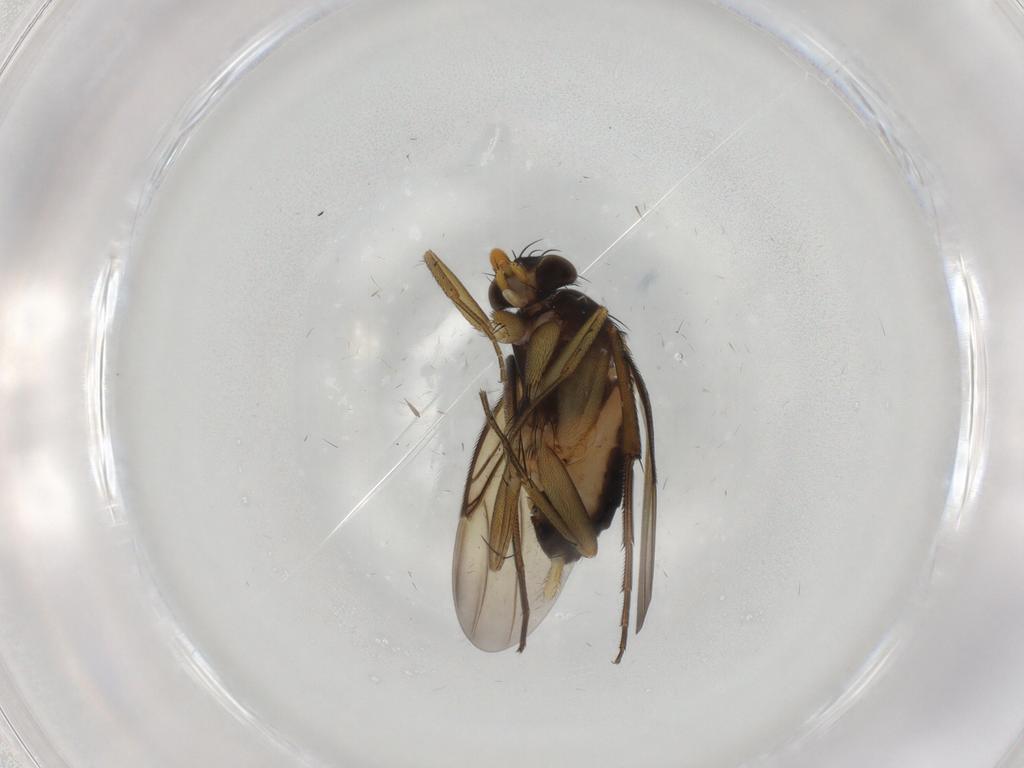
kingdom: Animalia
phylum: Arthropoda
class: Insecta
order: Diptera
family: Phoridae
